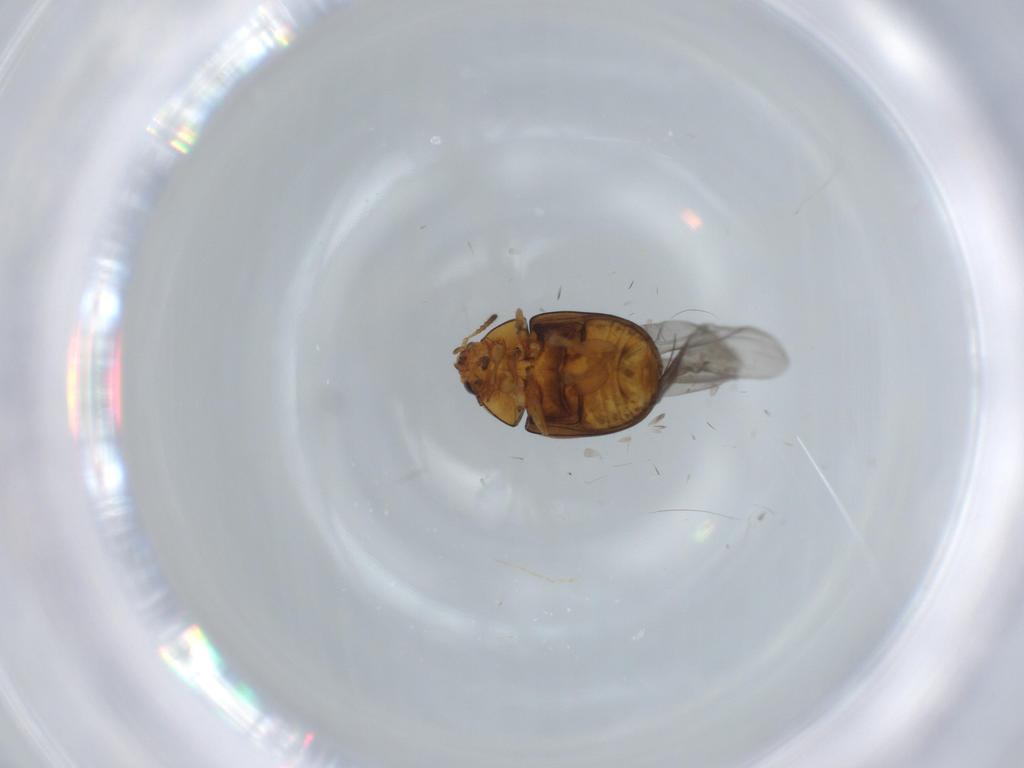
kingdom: Animalia
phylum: Arthropoda
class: Insecta
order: Coleoptera
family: Chrysomelidae
